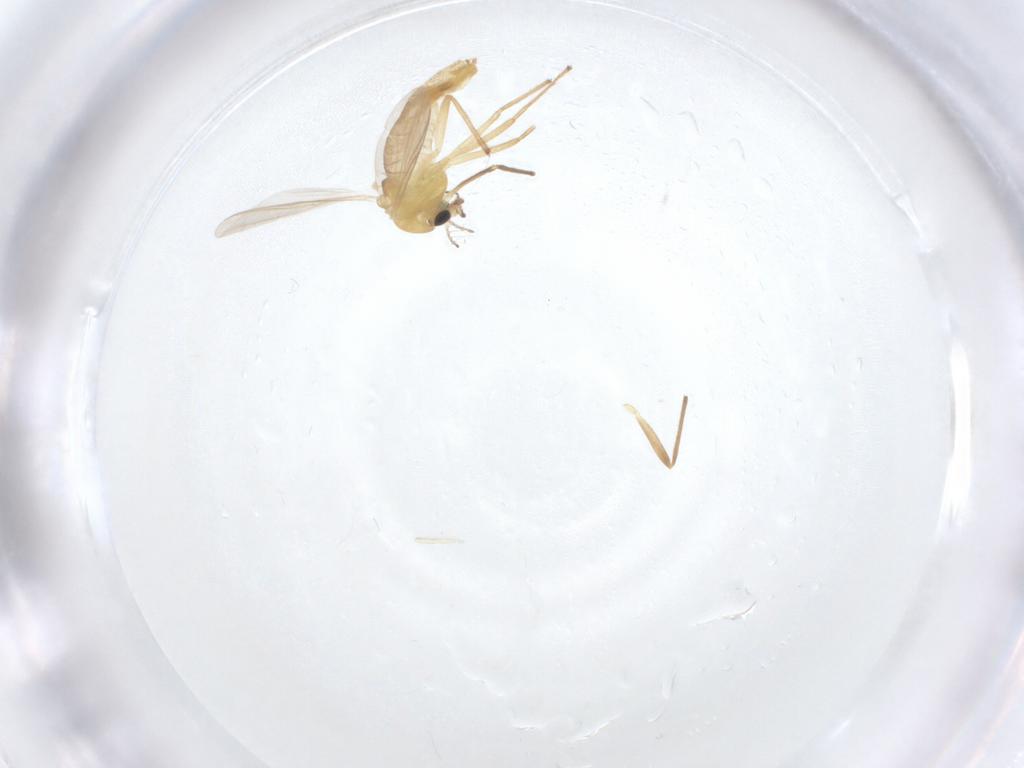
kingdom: Animalia
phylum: Arthropoda
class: Insecta
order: Diptera
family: Chironomidae
